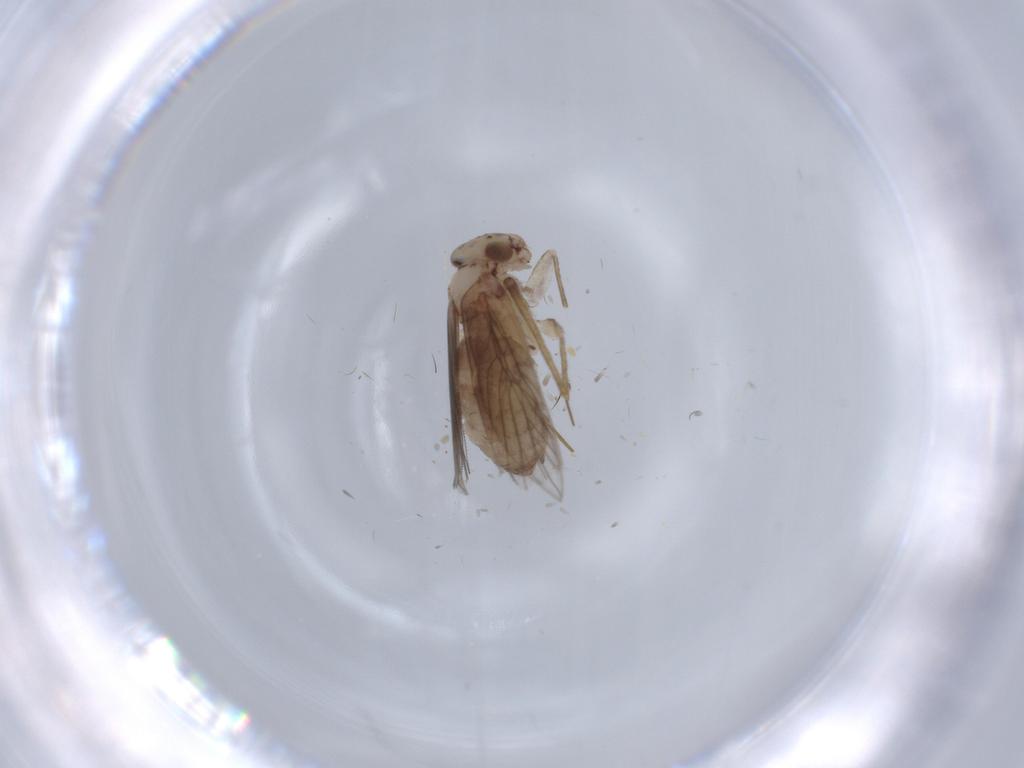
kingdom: Animalia
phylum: Arthropoda
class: Insecta
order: Psocodea
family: Lepidopsocidae
